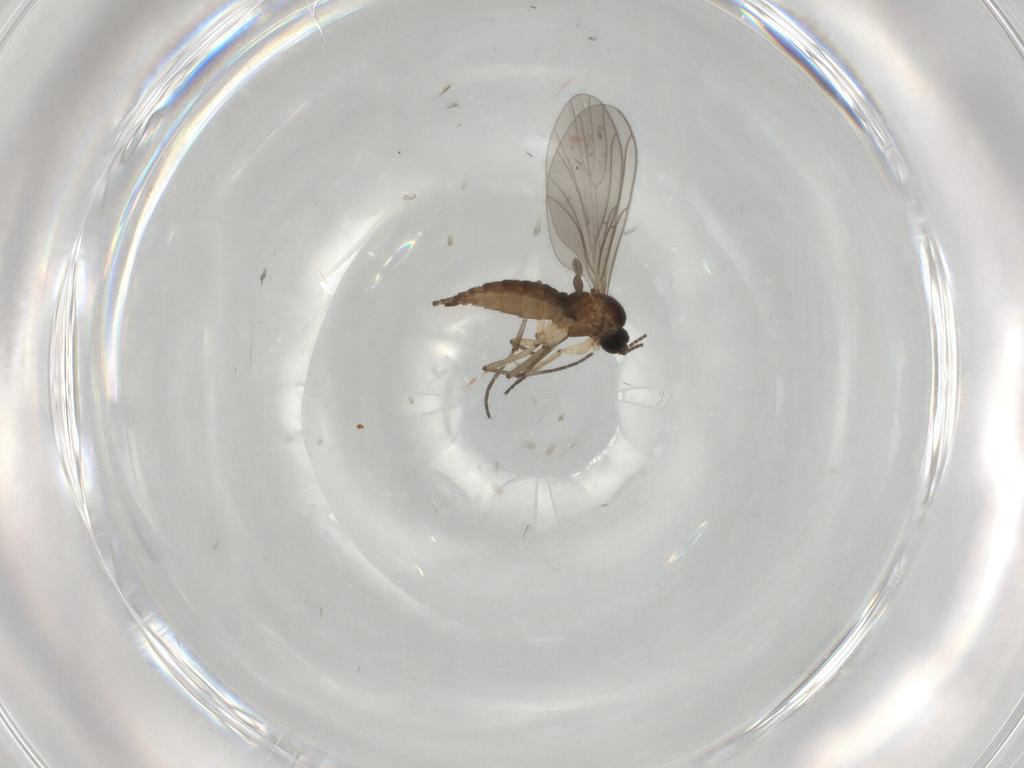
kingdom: Animalia
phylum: Arthropoda
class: Insecta
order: Diptera
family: Sciaridae
